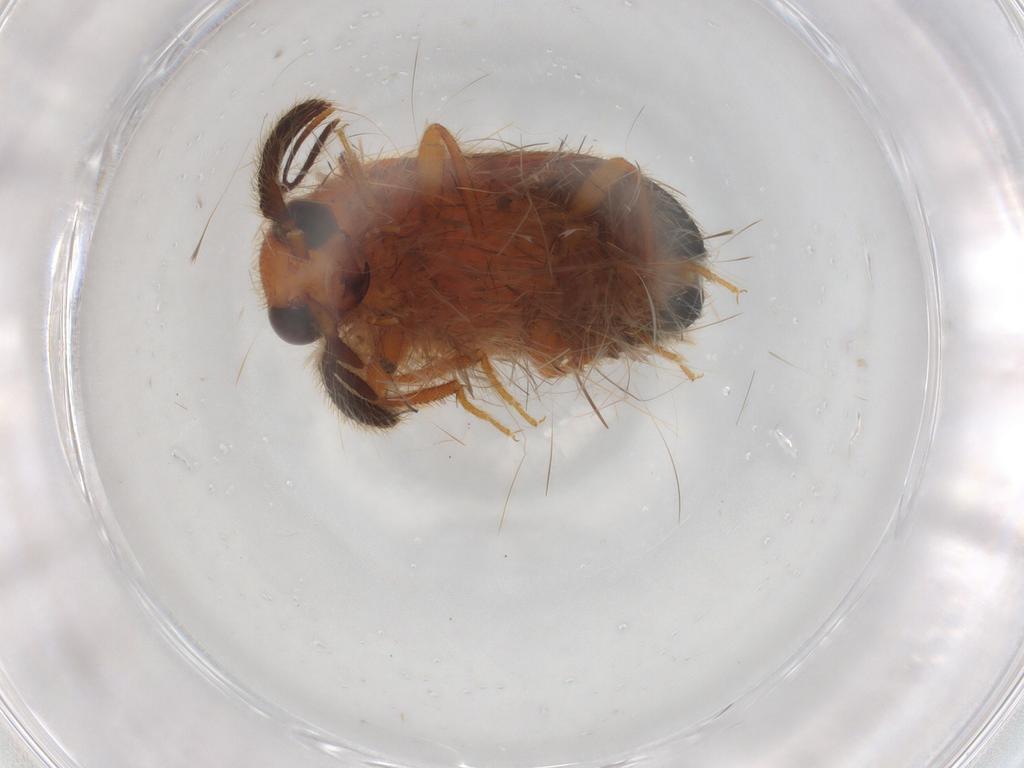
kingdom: Animalia
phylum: Arthropoda
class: Insecta
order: Coleoptera
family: Elateridae
